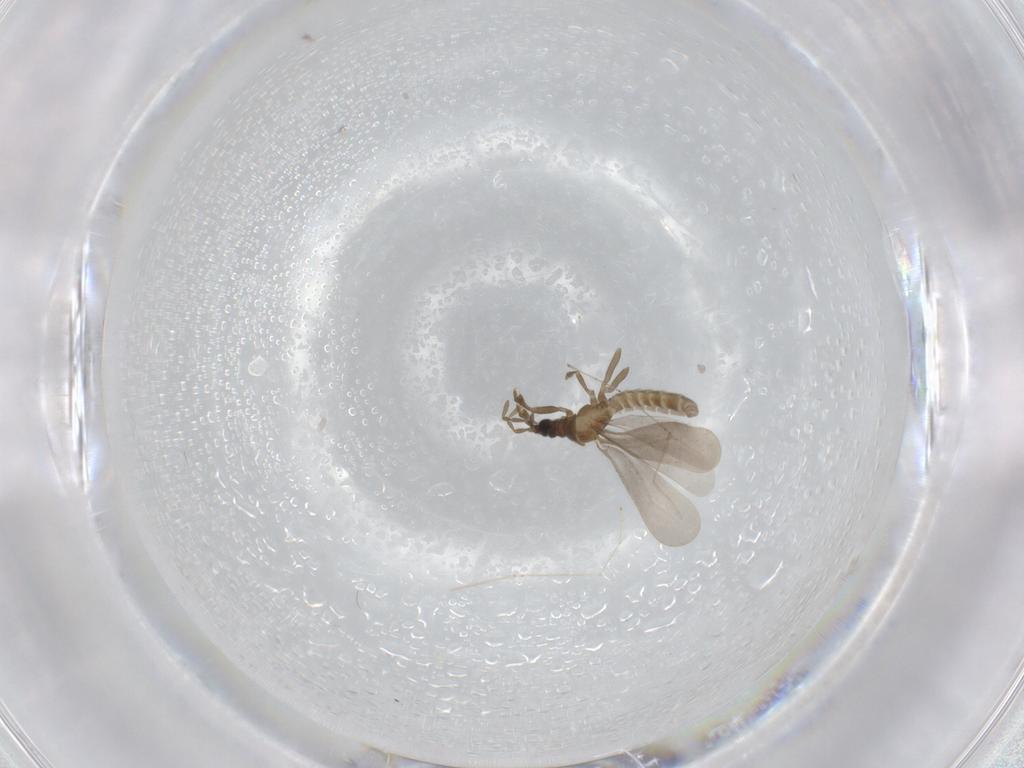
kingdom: Animalia
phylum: Arthropoda
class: Insecta
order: Hemiptera
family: Enicocephalidae
